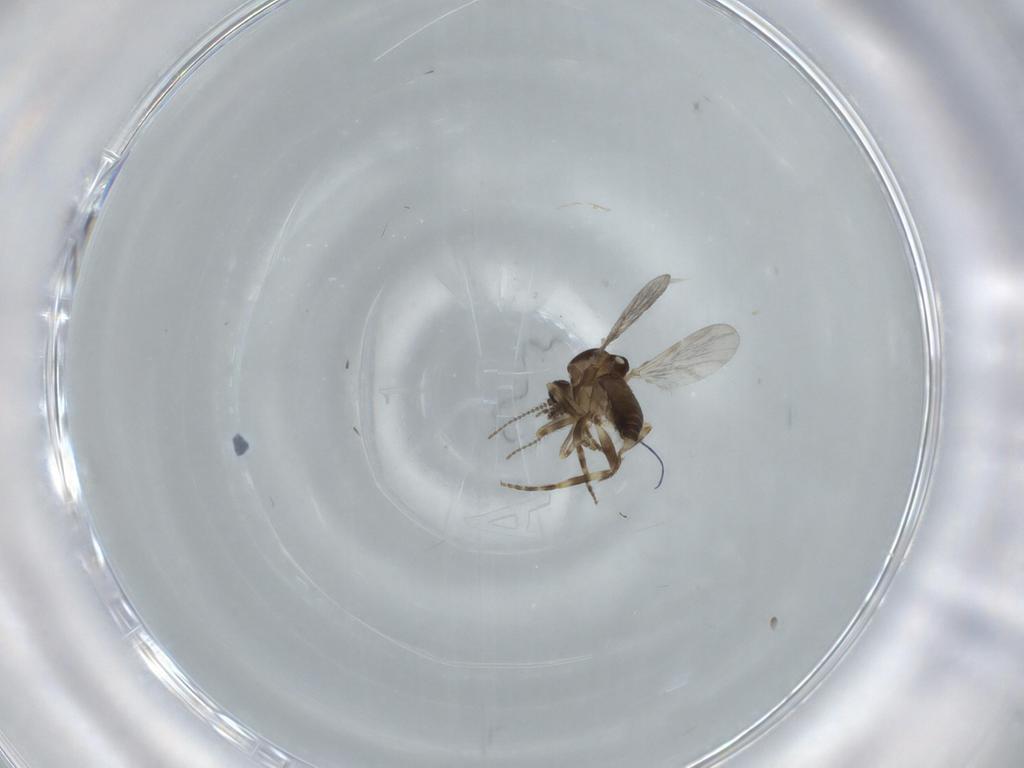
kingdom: Animalia
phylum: Arthropoda
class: Insecta
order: Diptera
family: Sciaridae
